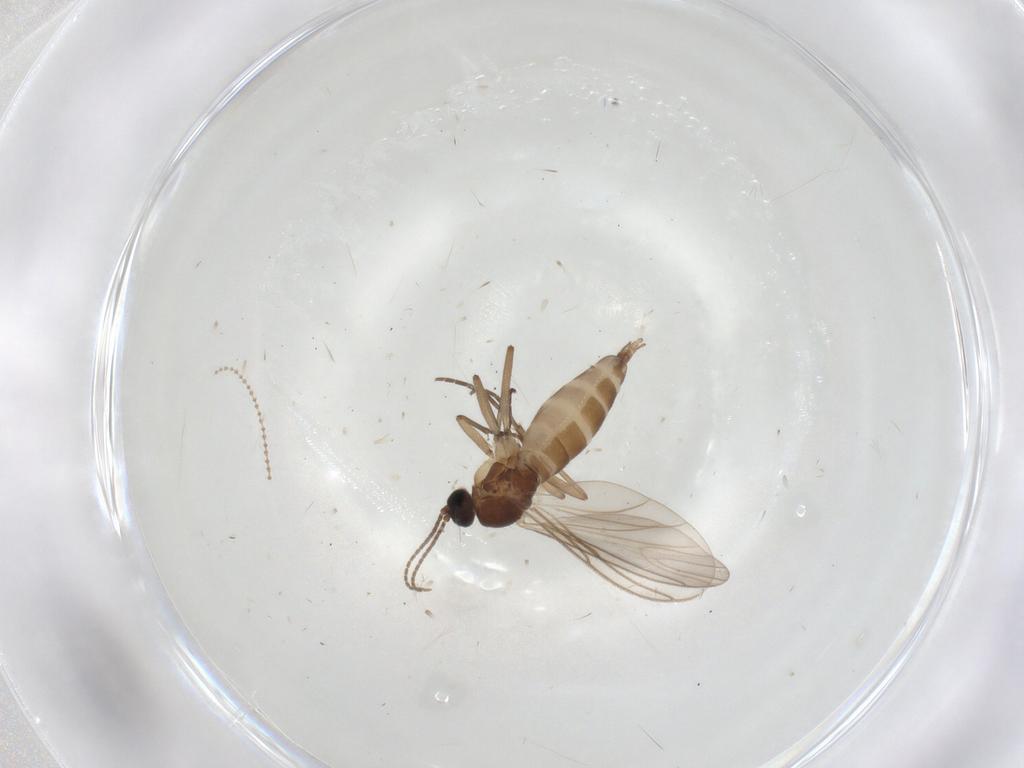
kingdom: Animalia
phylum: Arthropoda
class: Insecta
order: Diptera
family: Sciaridae
